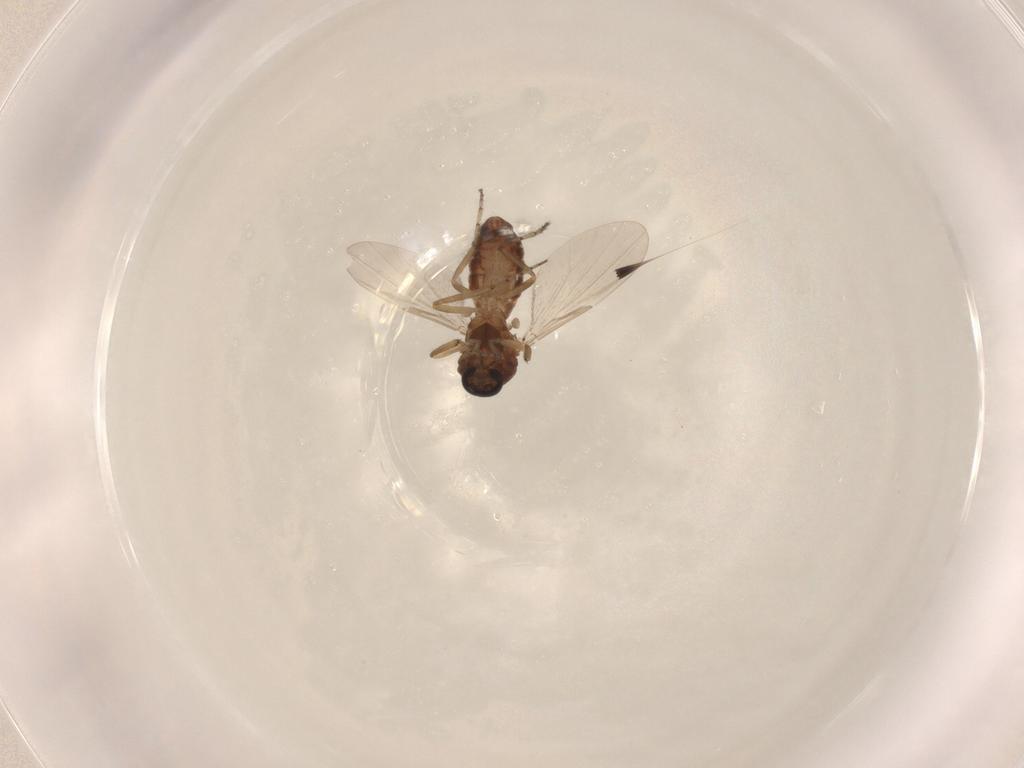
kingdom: Animalia
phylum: Arthropoda
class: Insecta
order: Diptera
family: Ceratopogonidae
